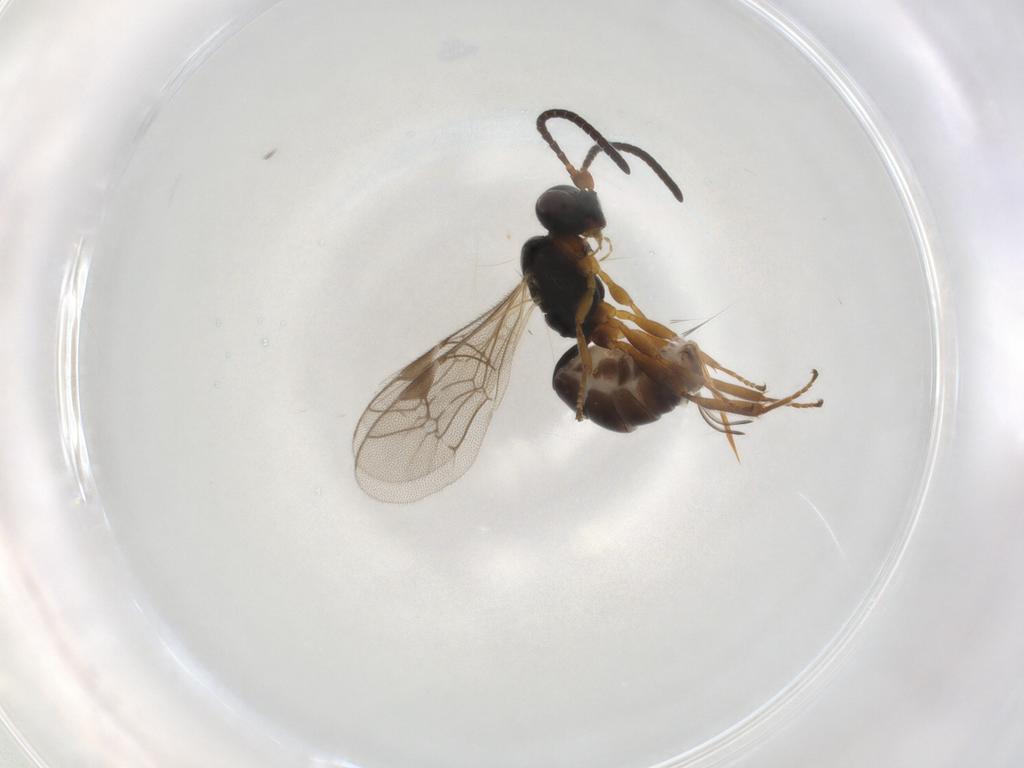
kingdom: Animalia
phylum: Arthropoda
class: Insecta
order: Hymenoptera
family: Ichneumonidae
